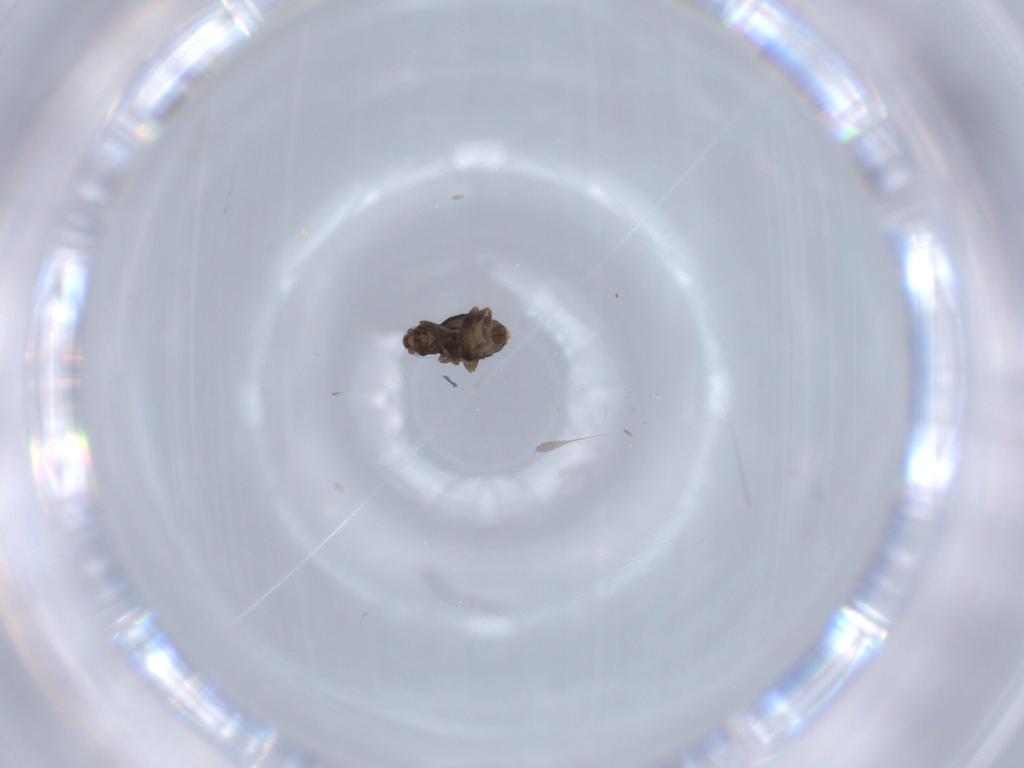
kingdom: Animalia
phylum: Arthropoda
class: Insecta
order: Diptera
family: Phoridae
